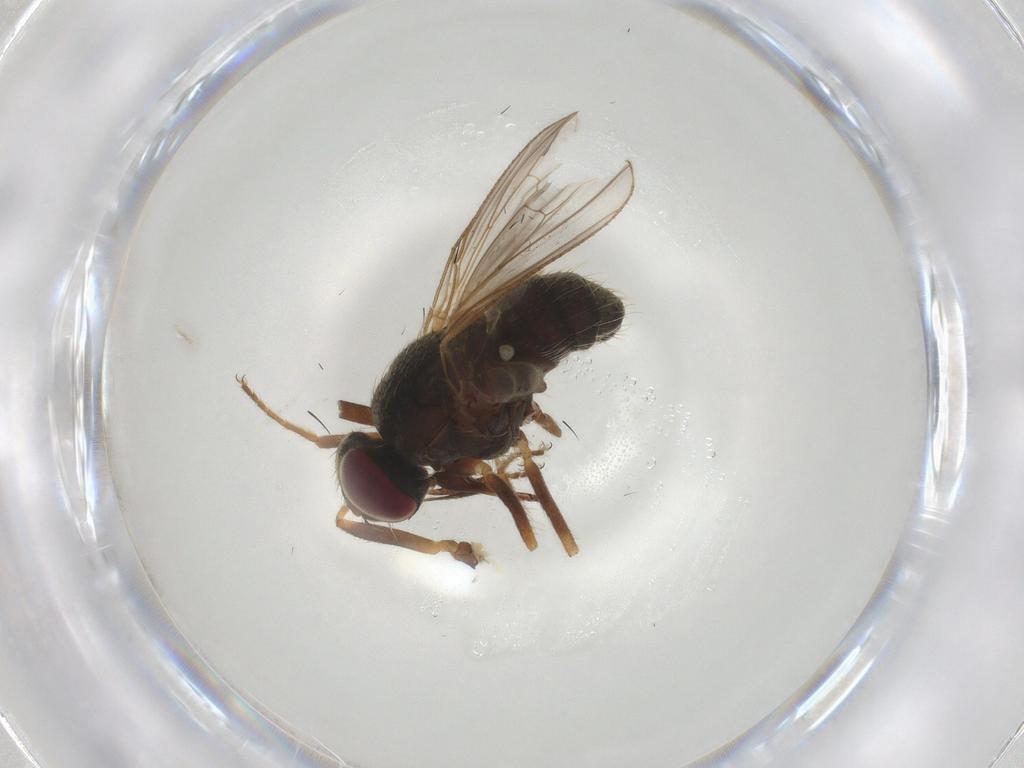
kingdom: Animalia
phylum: Arthropoda
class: Insecta
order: Diptera
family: Muscidae
